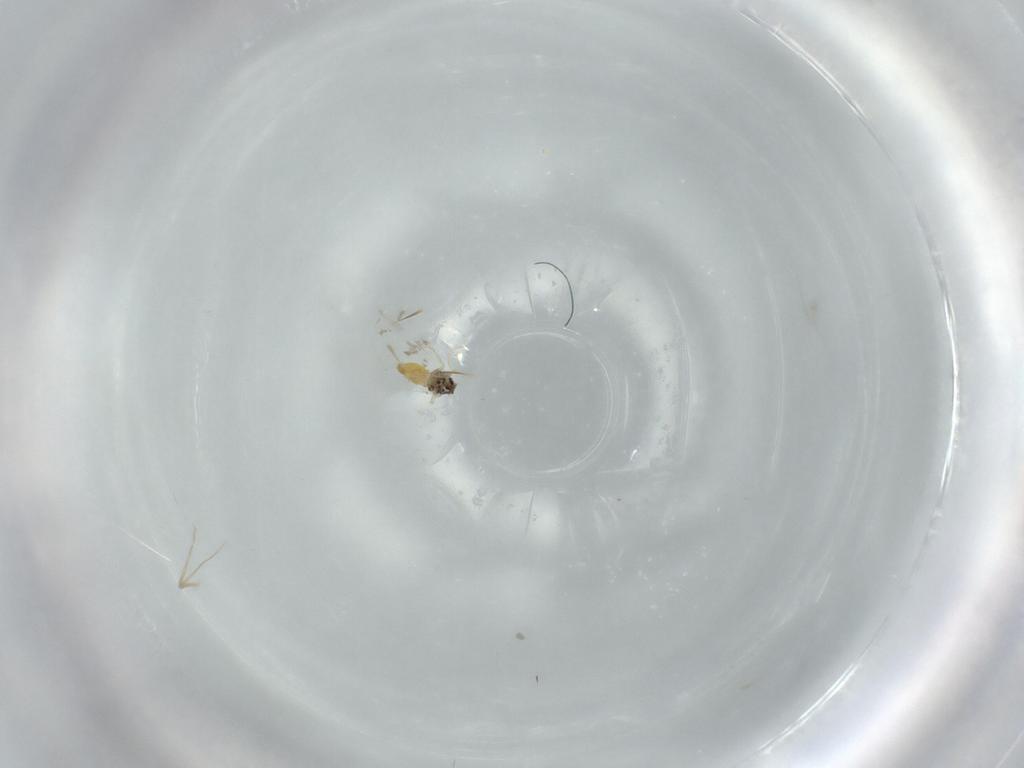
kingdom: Animalia
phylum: Arthropoda
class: Insecta
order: Hemiptera
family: Aleyrodidae
